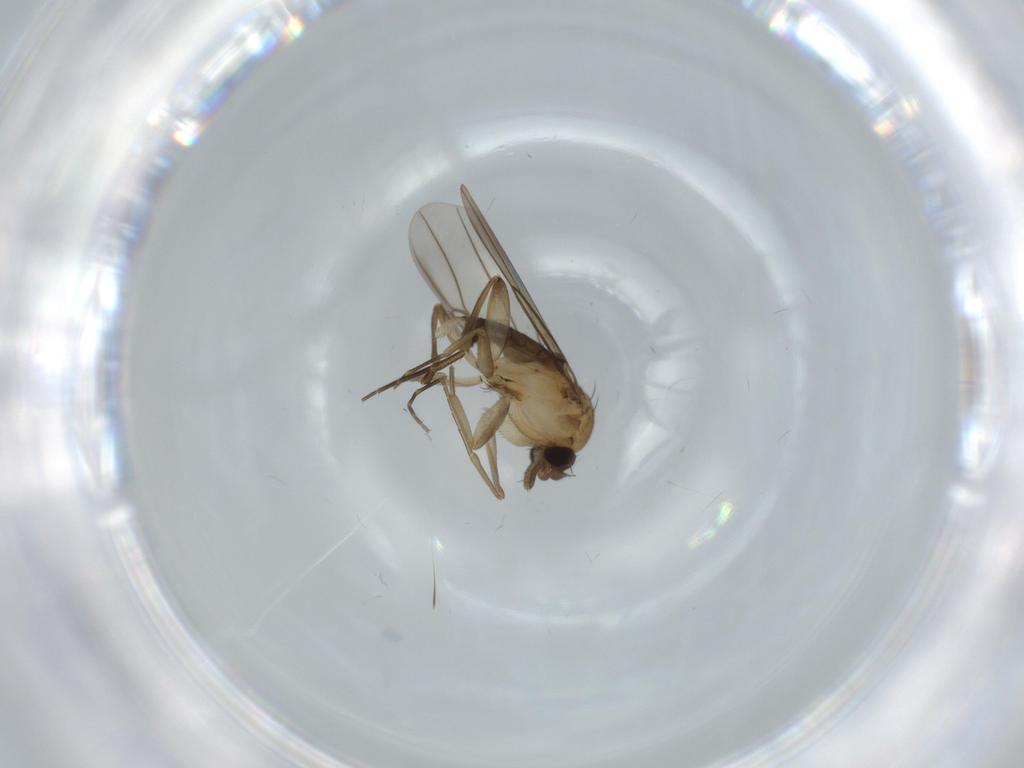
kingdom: Animalia
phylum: Arthropoda
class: Insecta
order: Diptera
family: Phoridae
